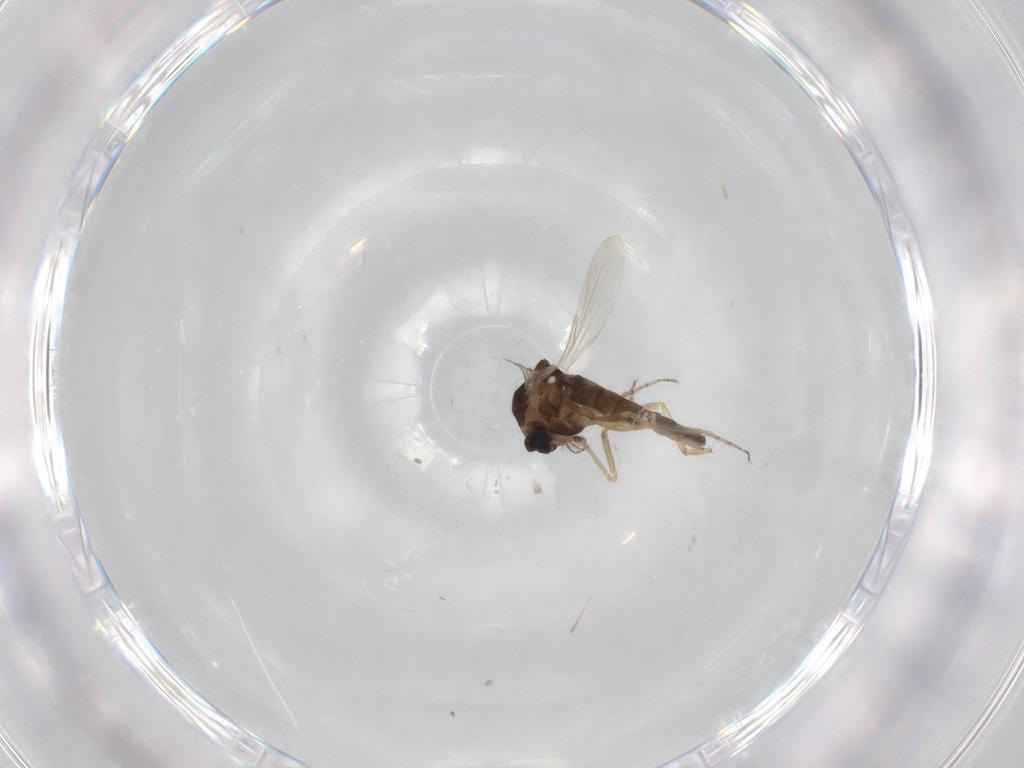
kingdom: Animalia
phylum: Arthropoda
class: Insecta
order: Diptera
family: Ceratopogonidae
